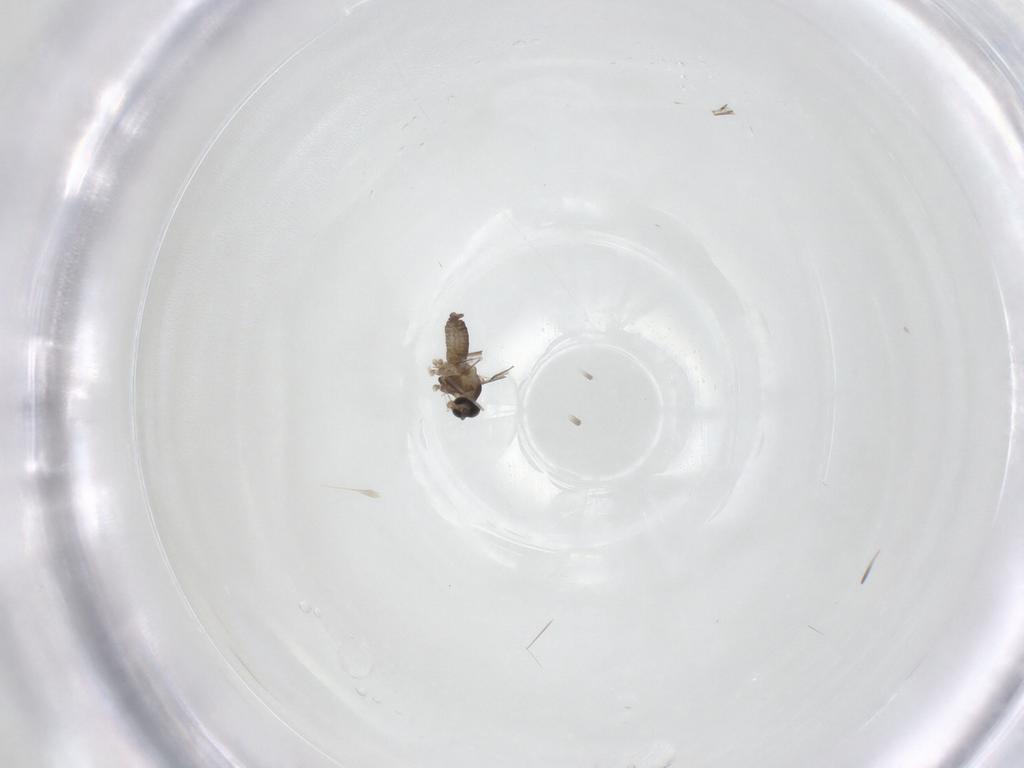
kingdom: Animalia
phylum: Arthropoda
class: Insecta
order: Diptera
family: Cecidomyiidae
